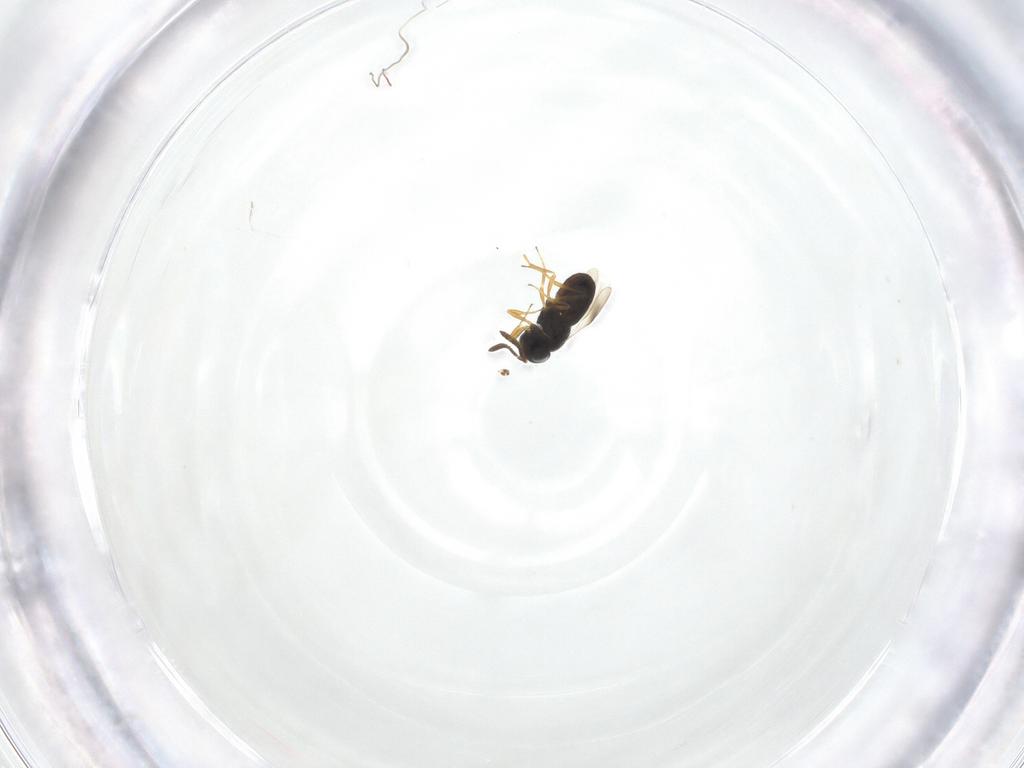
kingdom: Animalia
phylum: Arthropoda
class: Insecta
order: Hymenoptera
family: Scelionidae
